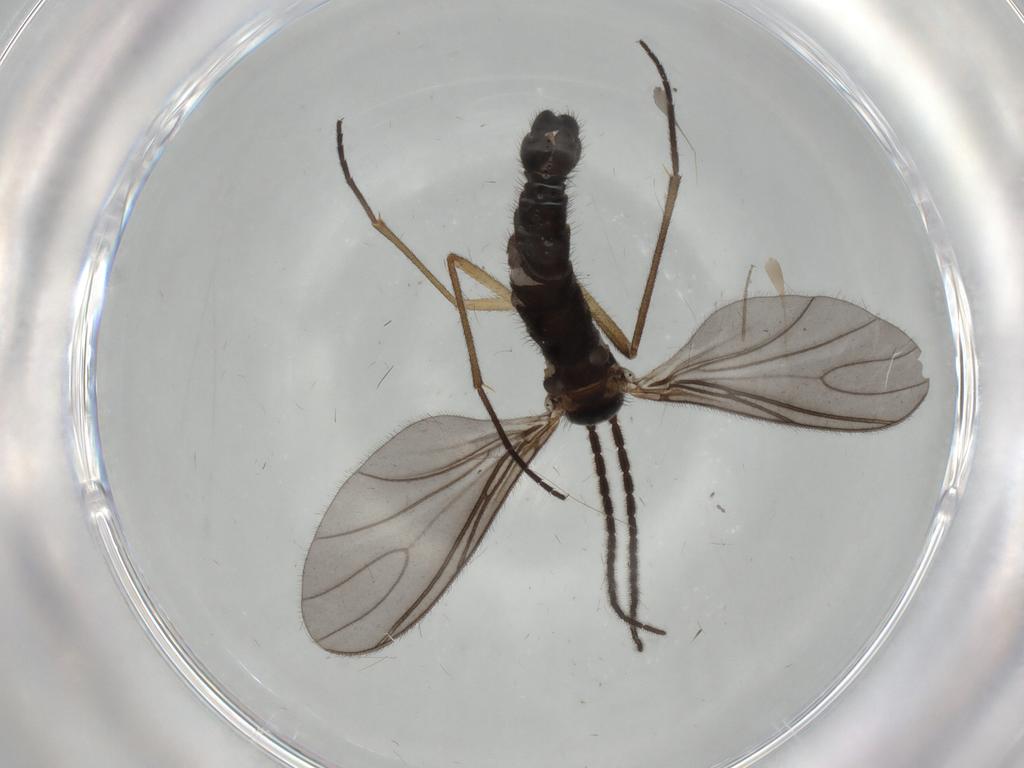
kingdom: Animalia
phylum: Arthropoda
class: Insecta
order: Diptera
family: Sciaridae
